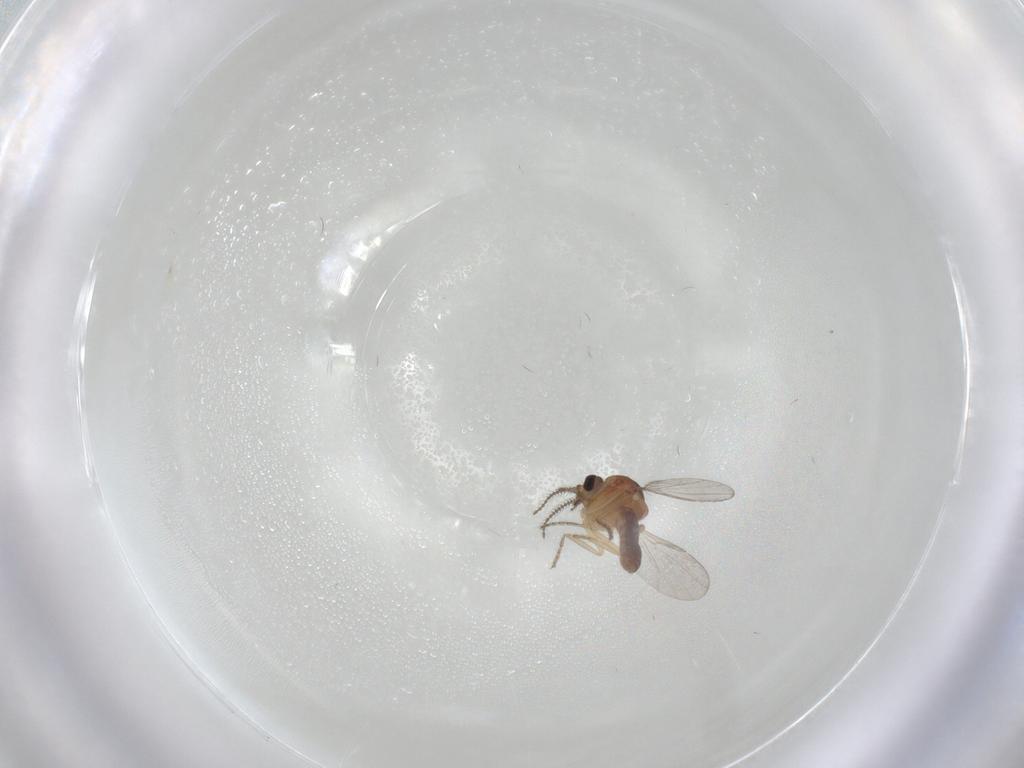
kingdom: Animalia
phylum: Arthropoda
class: Insecta
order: Diptera
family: Ceratopogonidae
